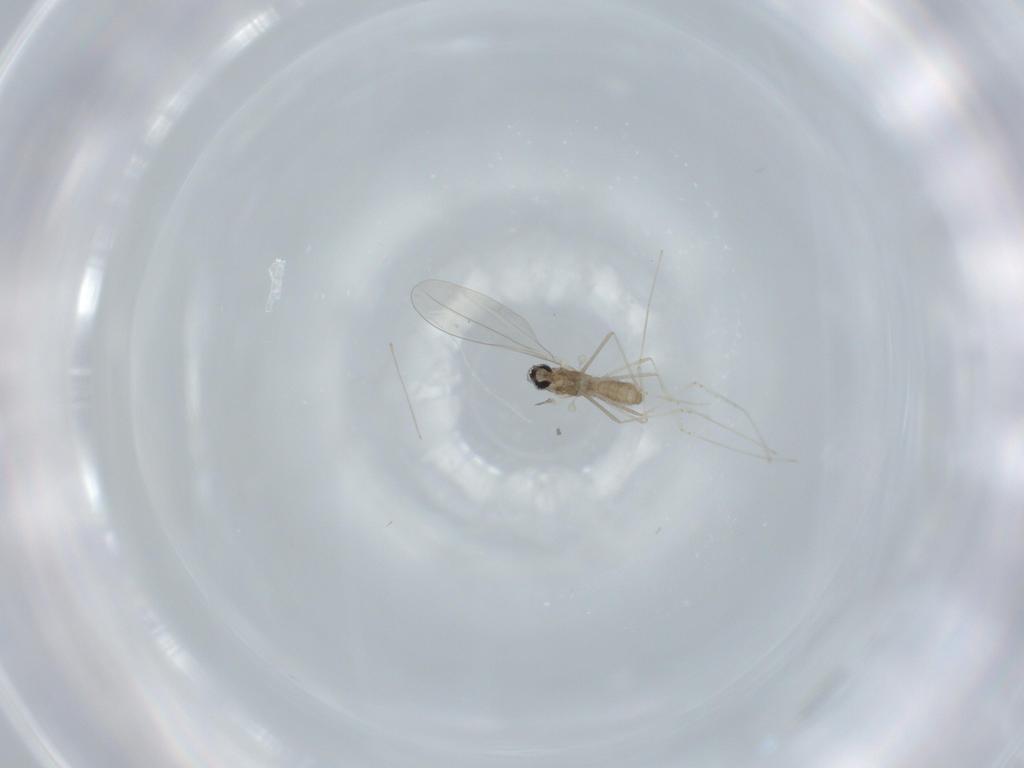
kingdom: Animalia
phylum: Arthropoda
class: Insecta
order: Diptera
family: Cecidomyiidae
